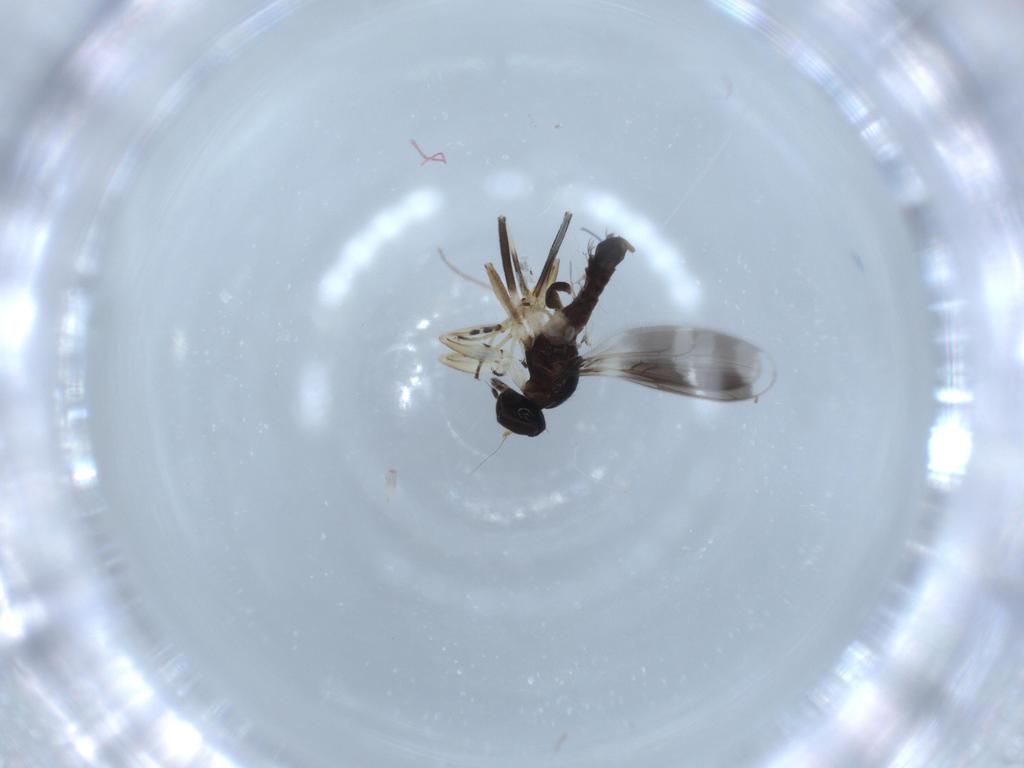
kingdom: Animalia
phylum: Arthropoda
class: Insecta
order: Diptera
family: Hybotidae
